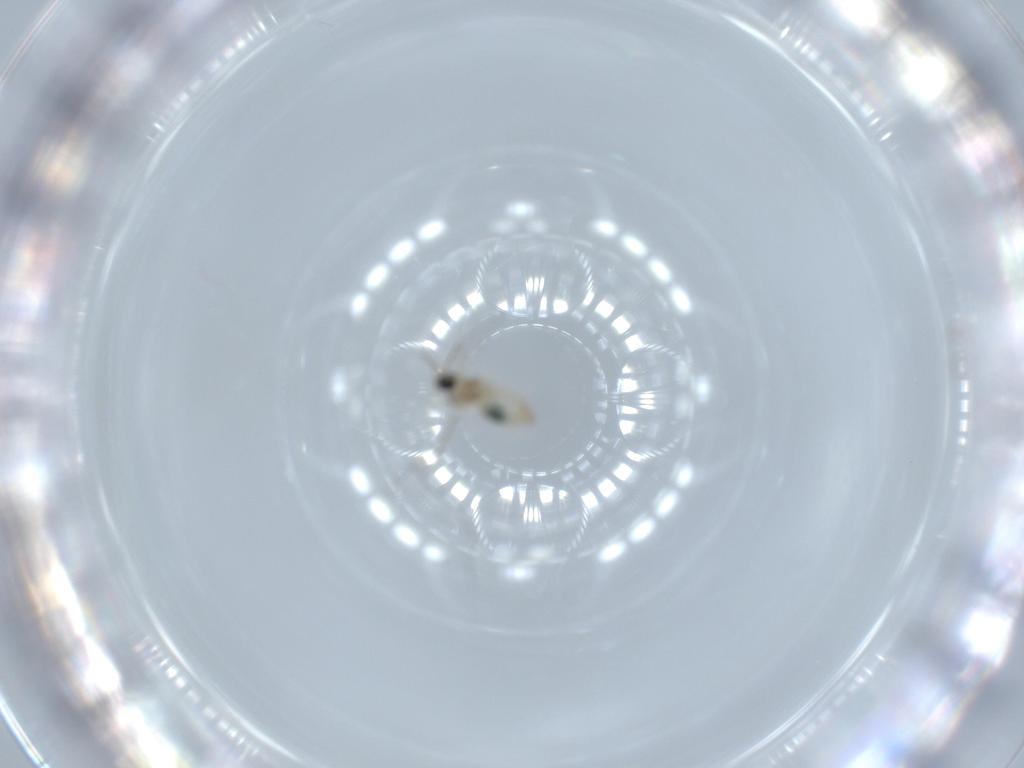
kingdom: Animalia
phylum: Arthropoda
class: Insecta
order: Diptera
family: Cecidomyiidae
